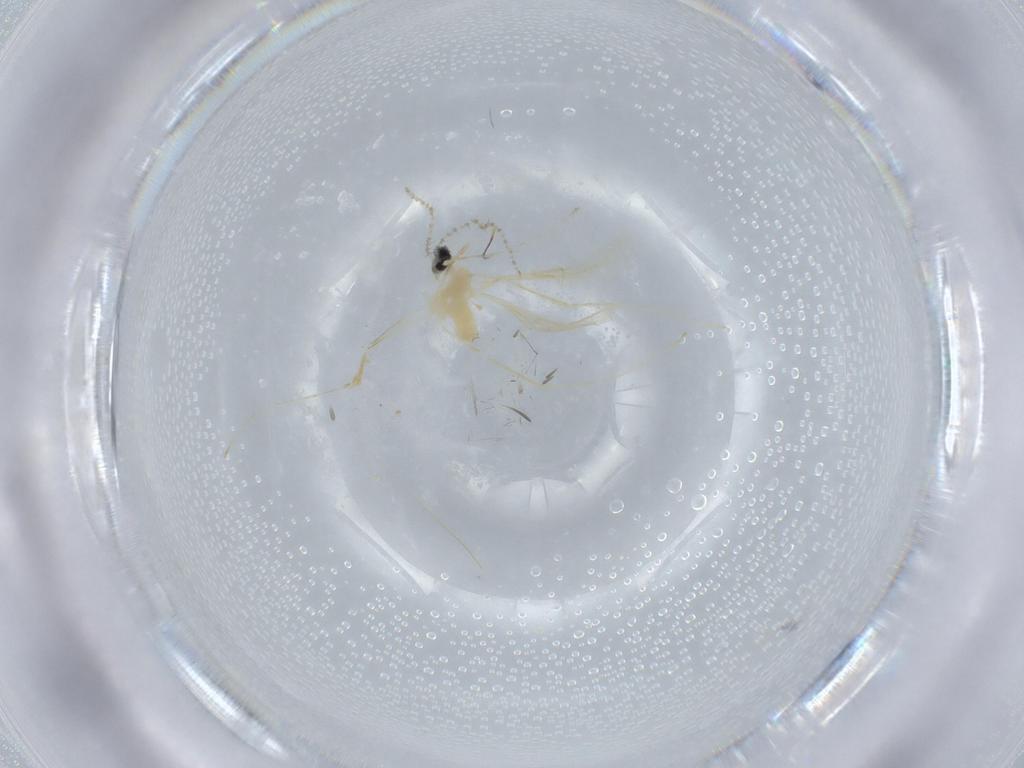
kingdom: Animalia
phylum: Arthropoda
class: Insecta
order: Diptera
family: Cecidomyiidae
